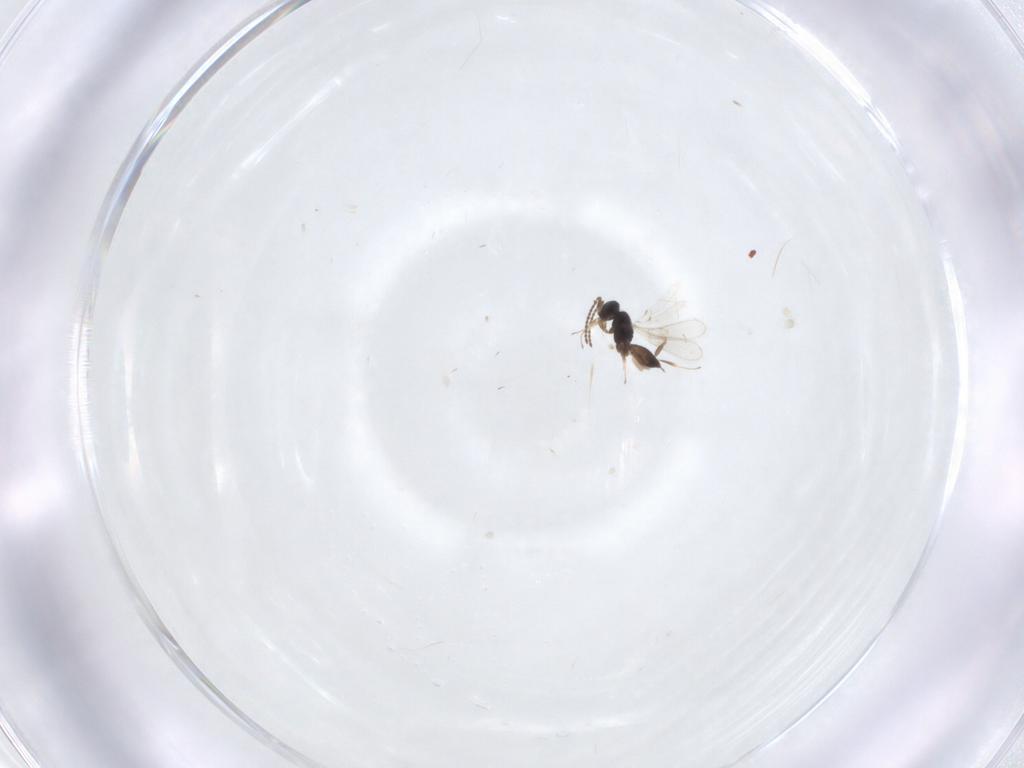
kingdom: Animalia
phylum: Arthropoda
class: Insecta
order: Hymenoptera
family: Scelionidae
